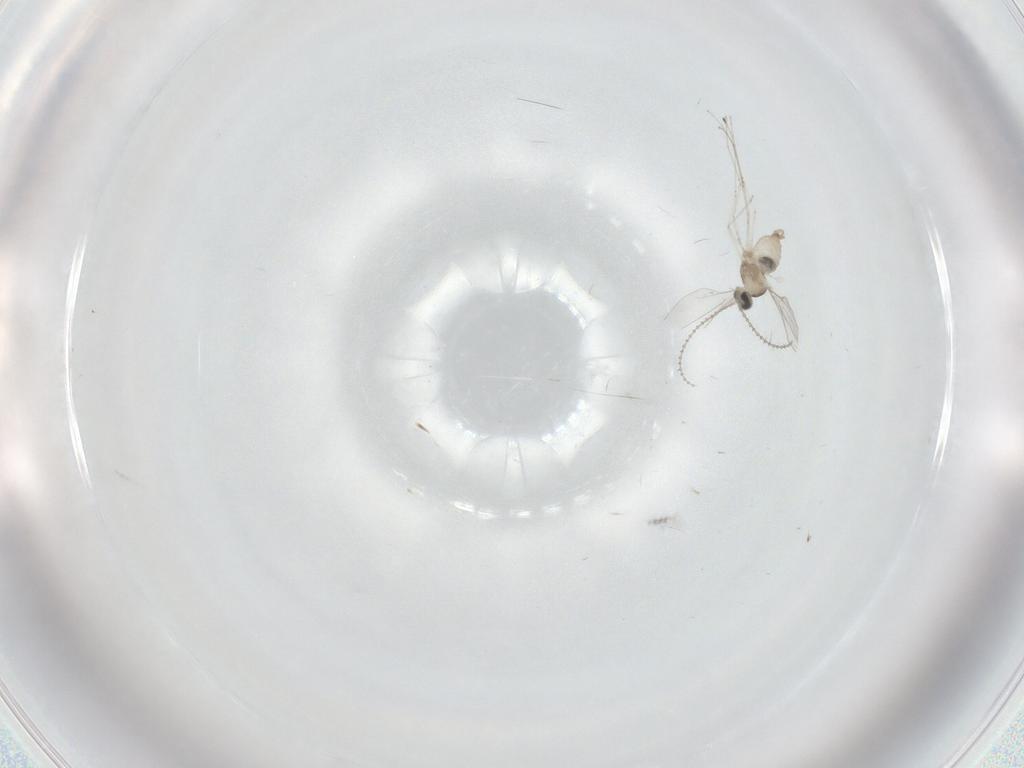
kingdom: Animalia
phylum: Arthropoda
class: Insecta
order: Diptera
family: Cecidomyiidae
